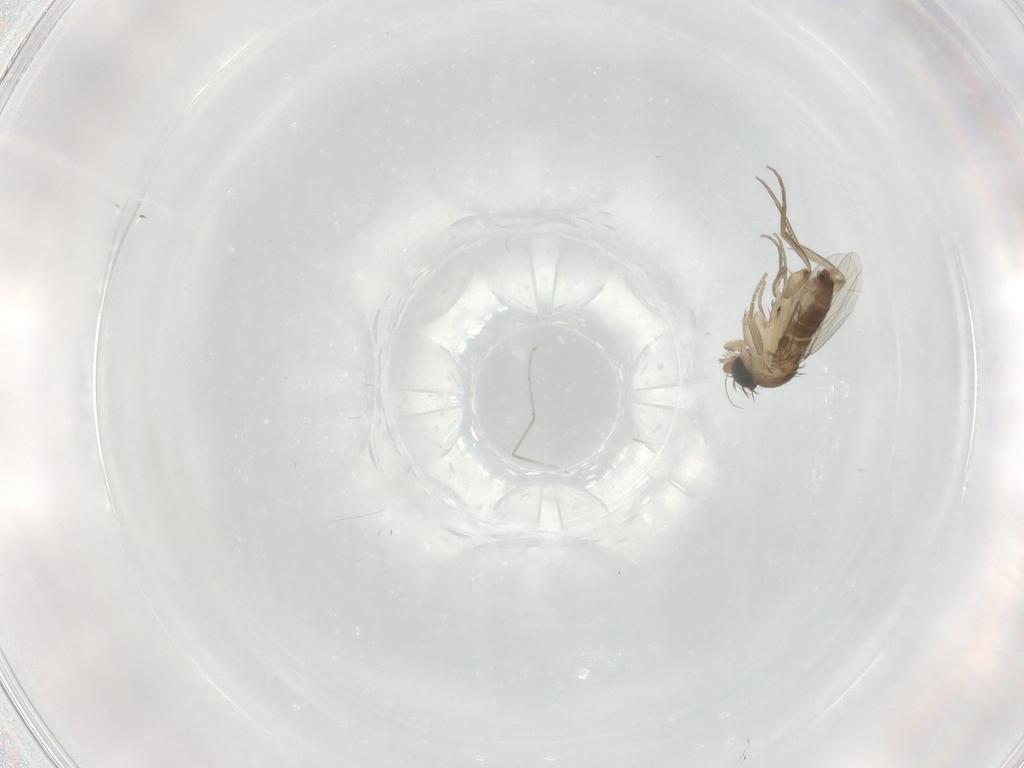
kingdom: Animalia
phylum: Arthropoda
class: Insecta
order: Diptera
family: Phoridae
